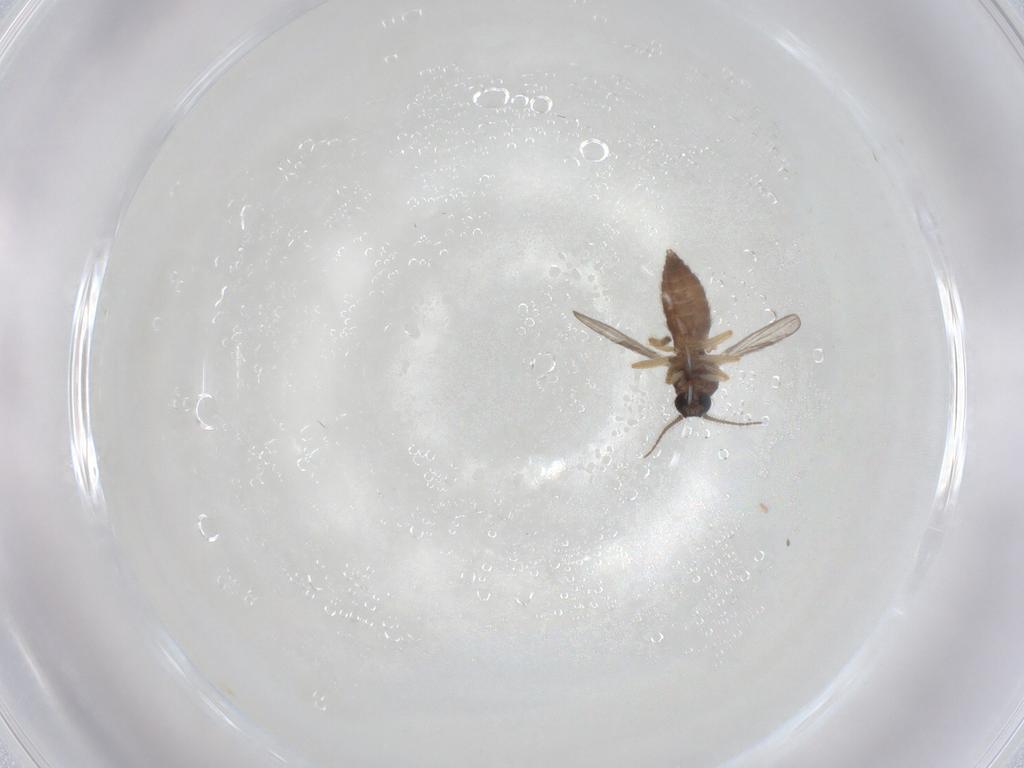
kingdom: Animalia
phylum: Arthropoda
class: Insecta
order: Diptera
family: Ceratopogonidae
